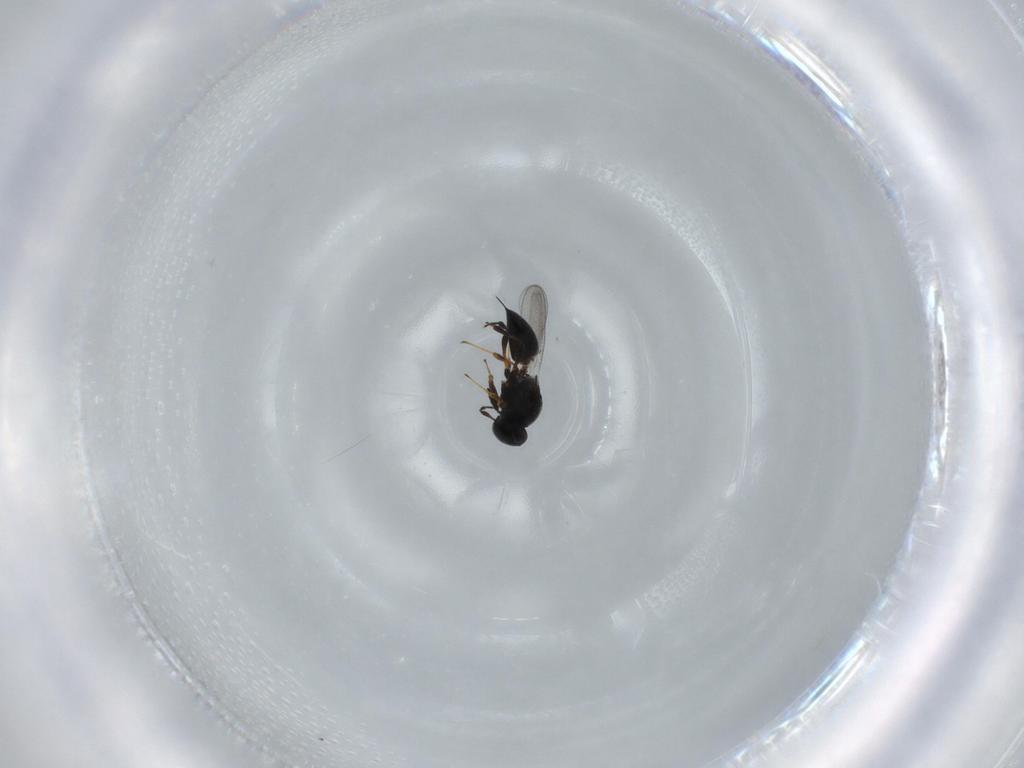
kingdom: Animalia
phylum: Arthropoda
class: Insecta
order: Hymenoptera
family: Platygastridae
